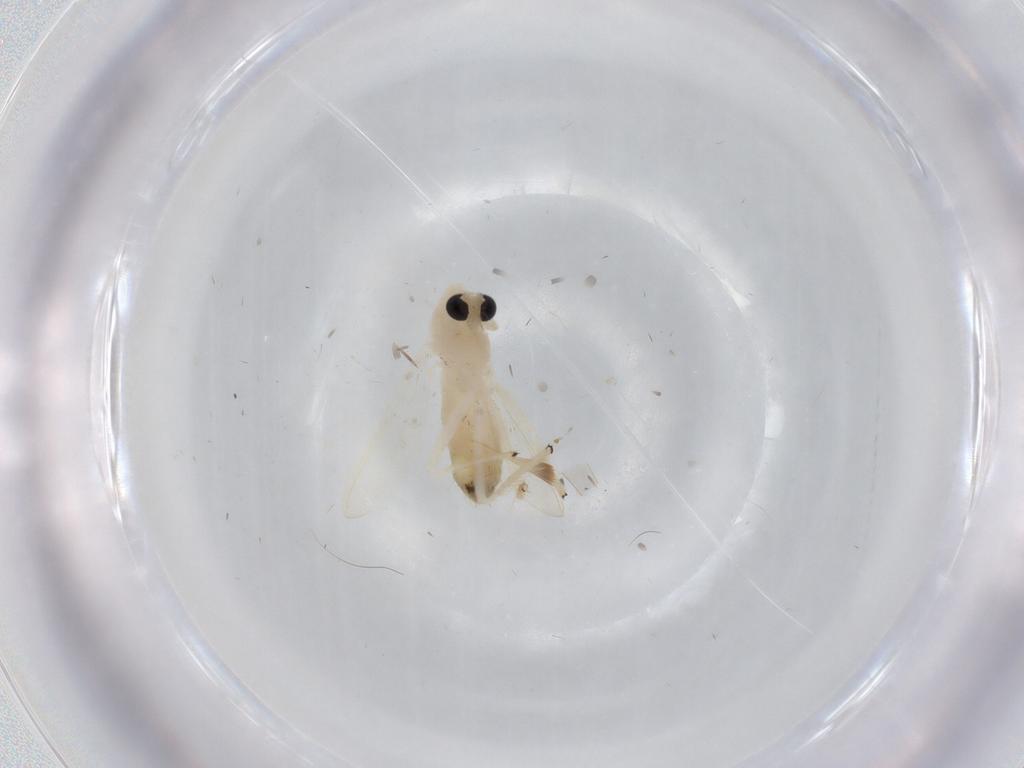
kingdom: Animalia
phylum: Arthropoda
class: Insecta
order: Diptera
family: Chironomidae
